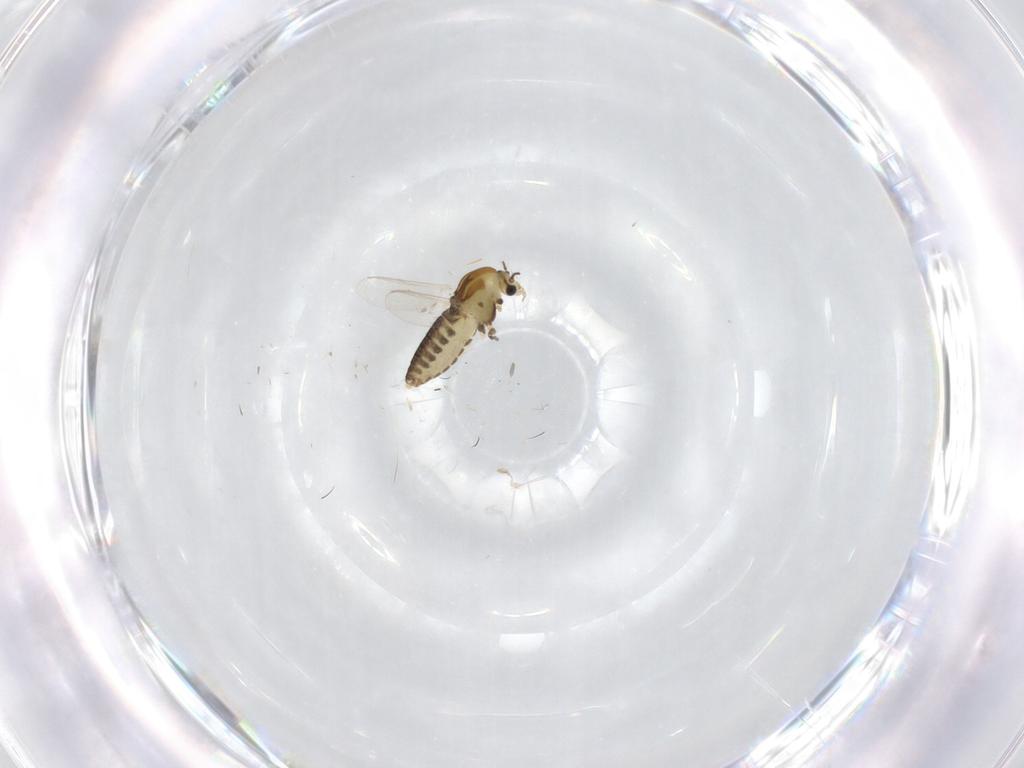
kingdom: Animalia
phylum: Arthropoda
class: Insecta
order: Diptera
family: Chironomidae
